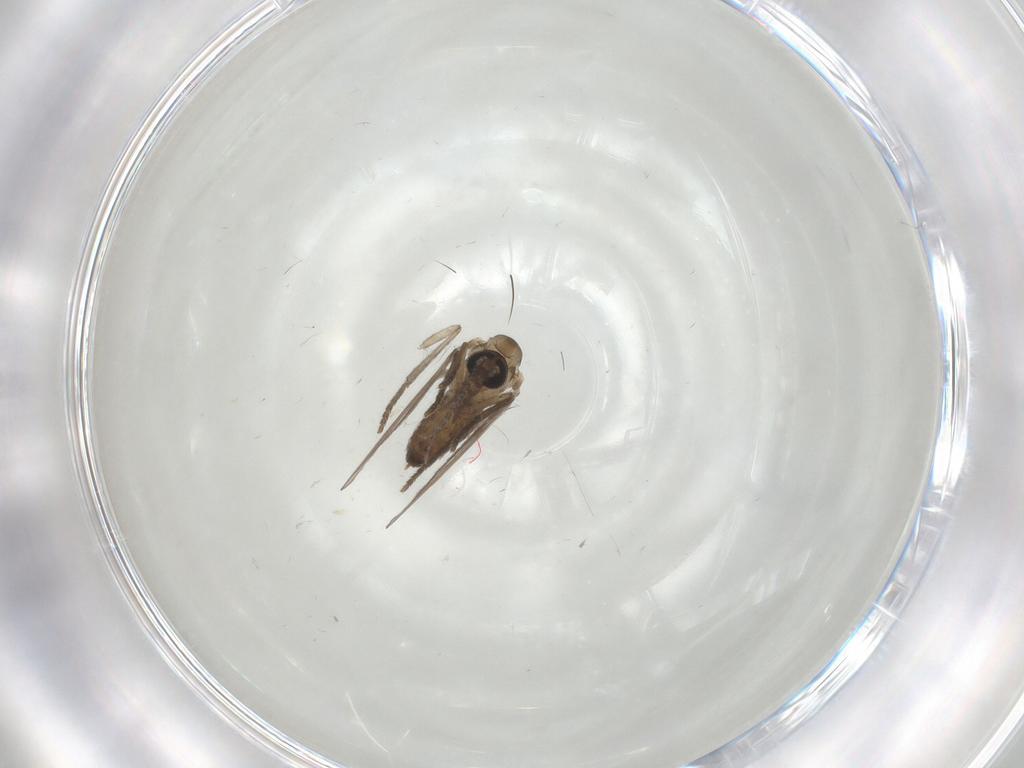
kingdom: Animalia
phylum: Arthropoda
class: Insecta
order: Diptera
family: Psychodidae
